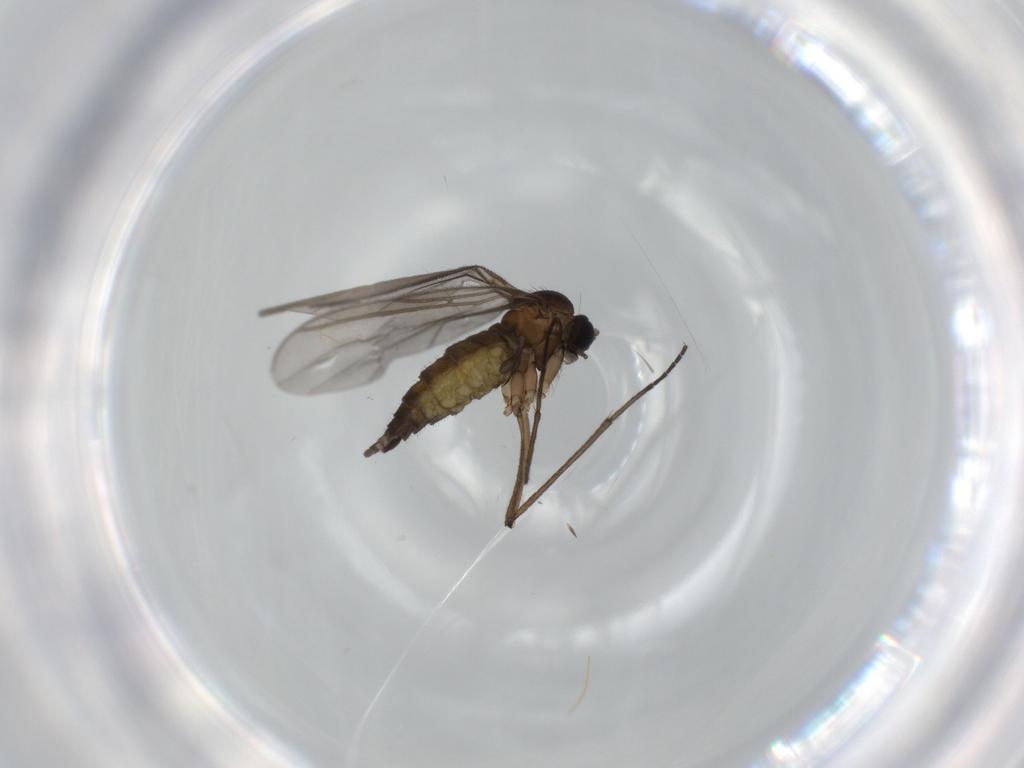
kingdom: Animalia
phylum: Arthropoda
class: Insecta
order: Diptera
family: Sciaridae
